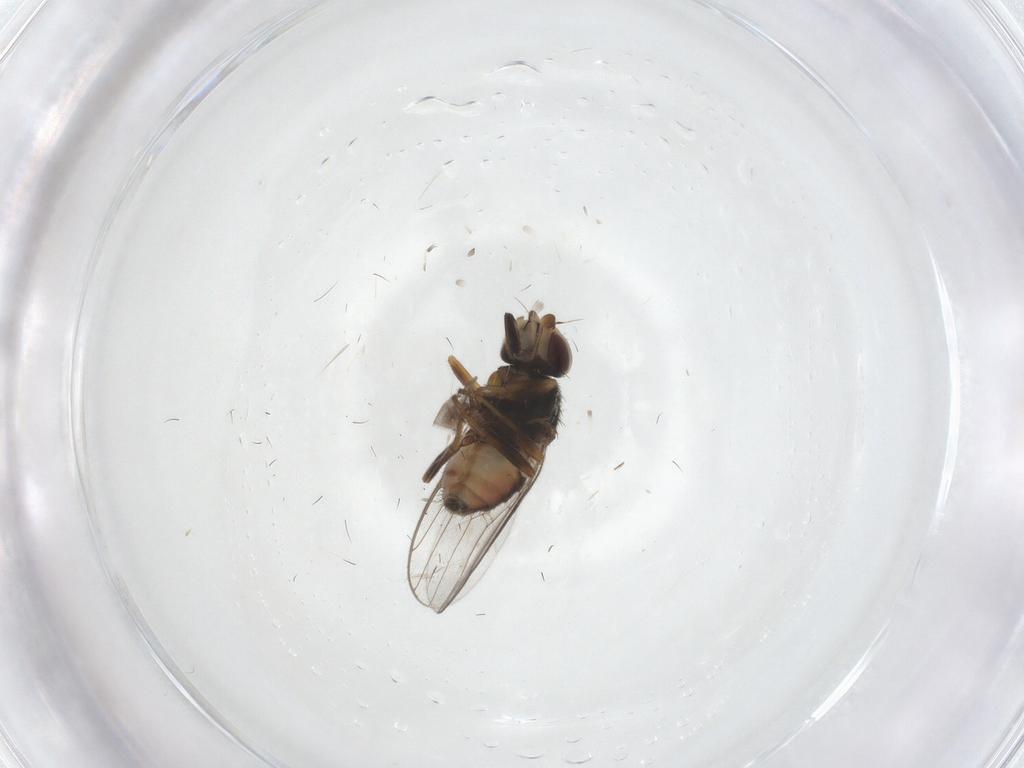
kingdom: Animalia
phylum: Arthropoda
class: Insecta
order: Diptera
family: Chloropidae
